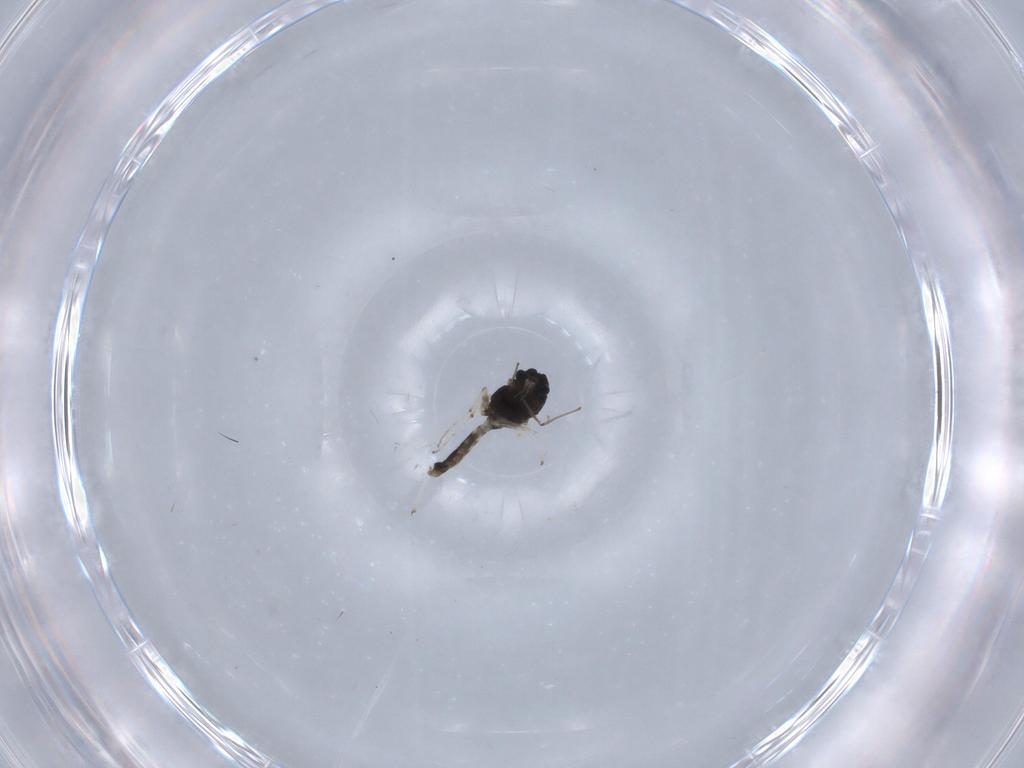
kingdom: Animalia
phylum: Arthropoda
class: Insecta
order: Diptera
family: Chironomidae
